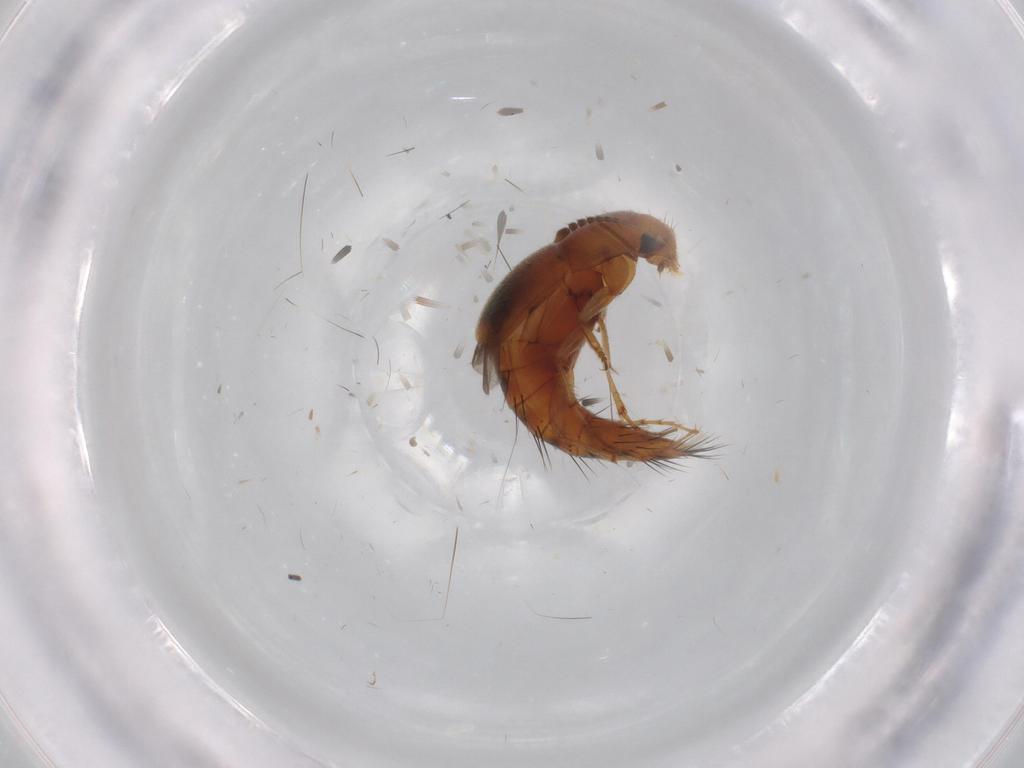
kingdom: Animalia
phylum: Arthropoda
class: Insecta
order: Coleoptera
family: Staphylinidae
